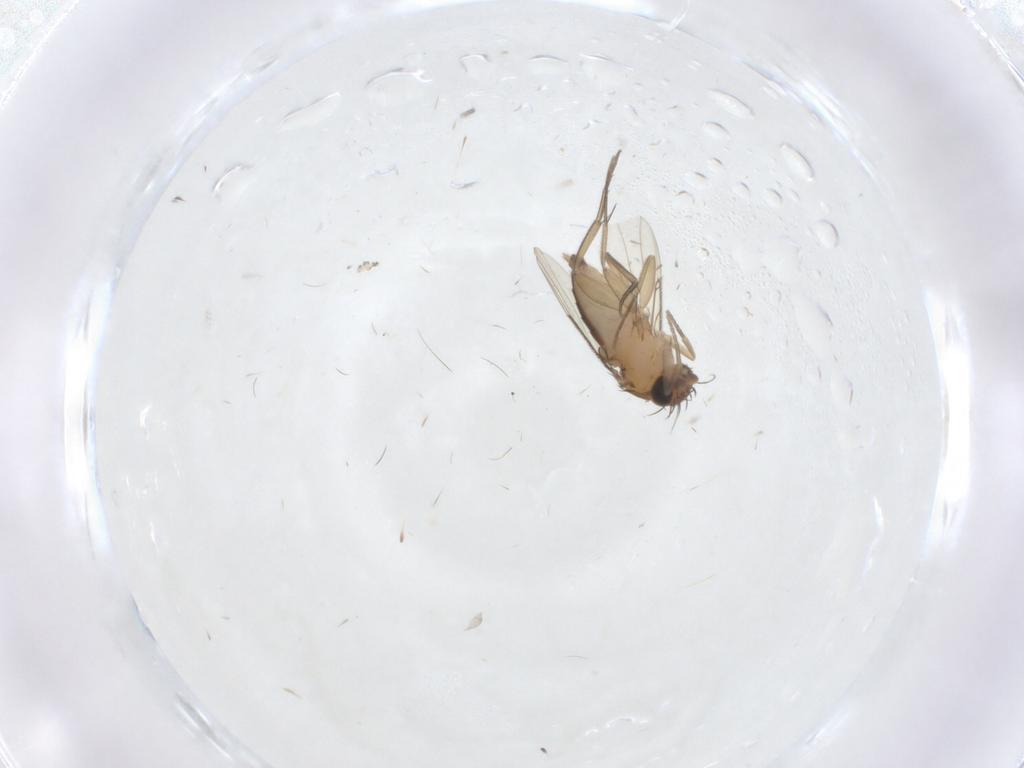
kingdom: Animalia
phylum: Arthropoda
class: Insecta
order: Diptera
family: Phoridae
